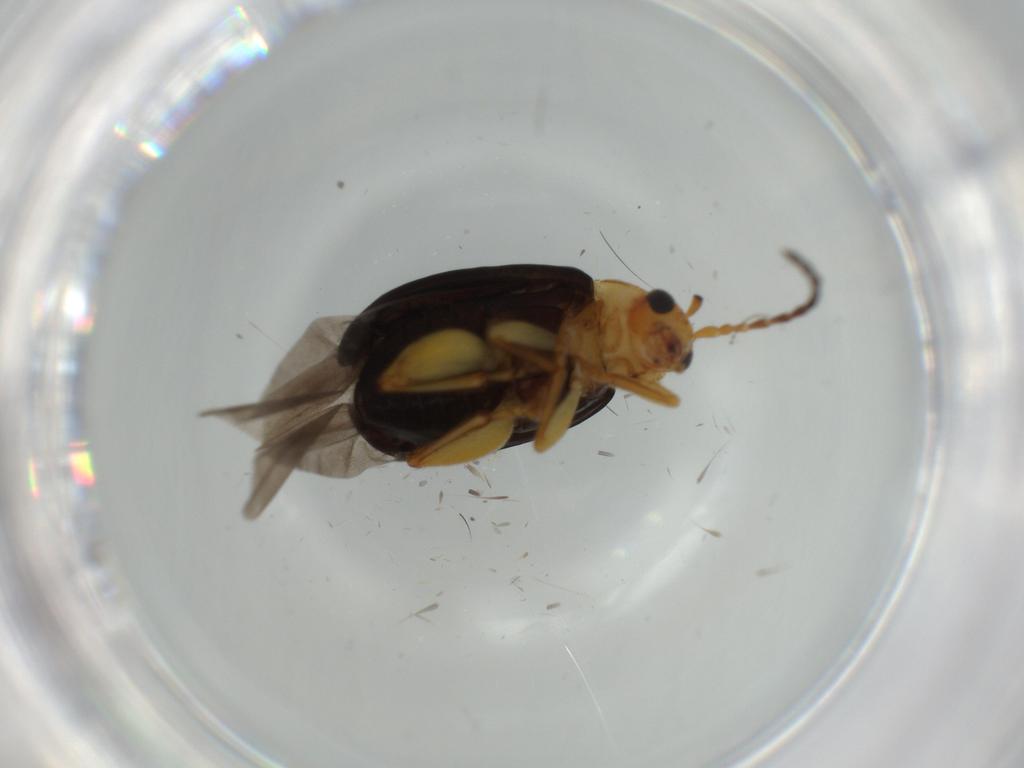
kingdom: Animalia
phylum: Arthropoda
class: Insecta
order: Coleoptera
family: Chrysomelidae
